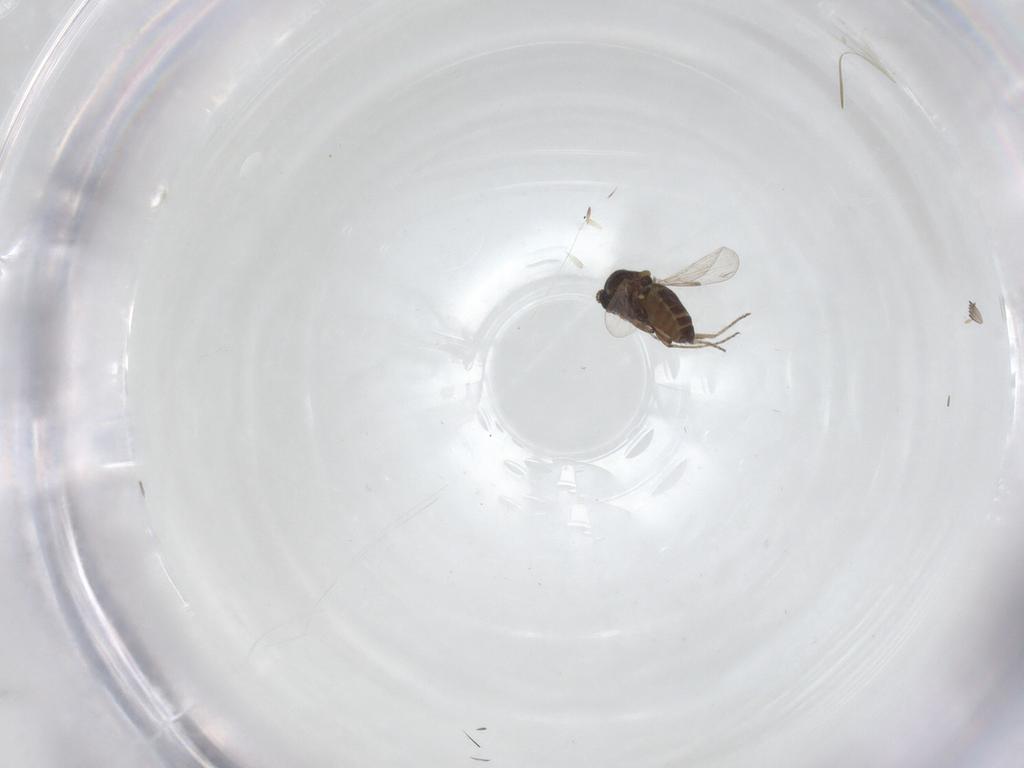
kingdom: Animalia
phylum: Arthropoda
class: Insecta
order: Diptera
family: Ceratopogonidae
